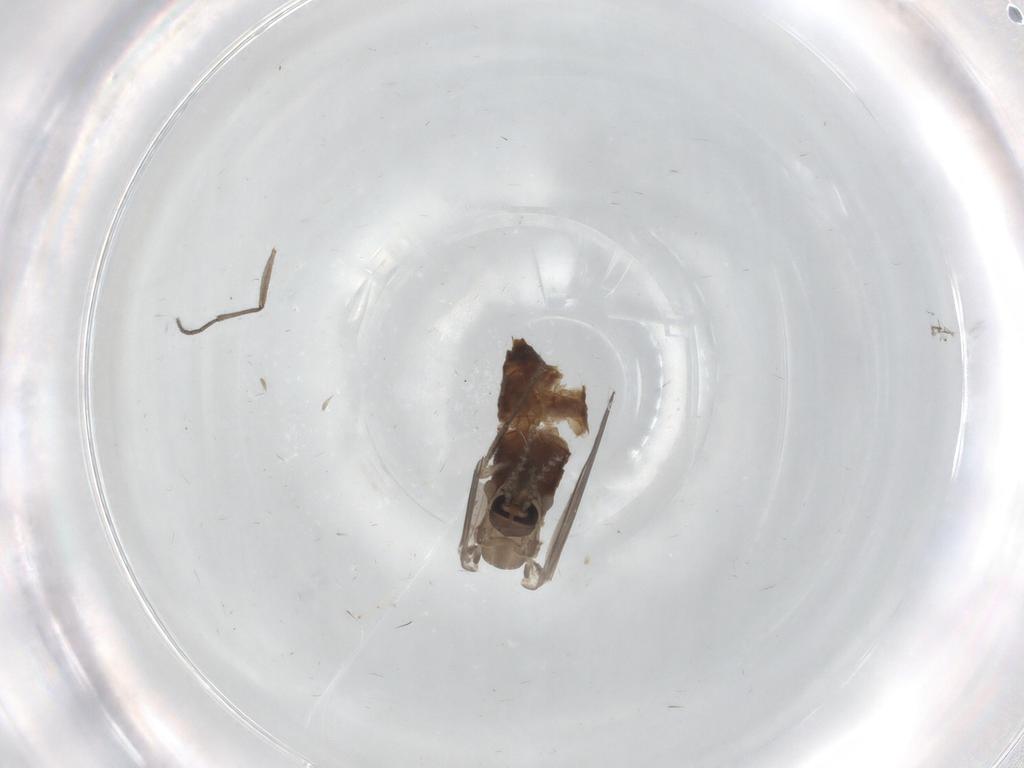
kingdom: Animalia
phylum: Arthropoda
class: Insecta
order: Diptera
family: Psychodidae
